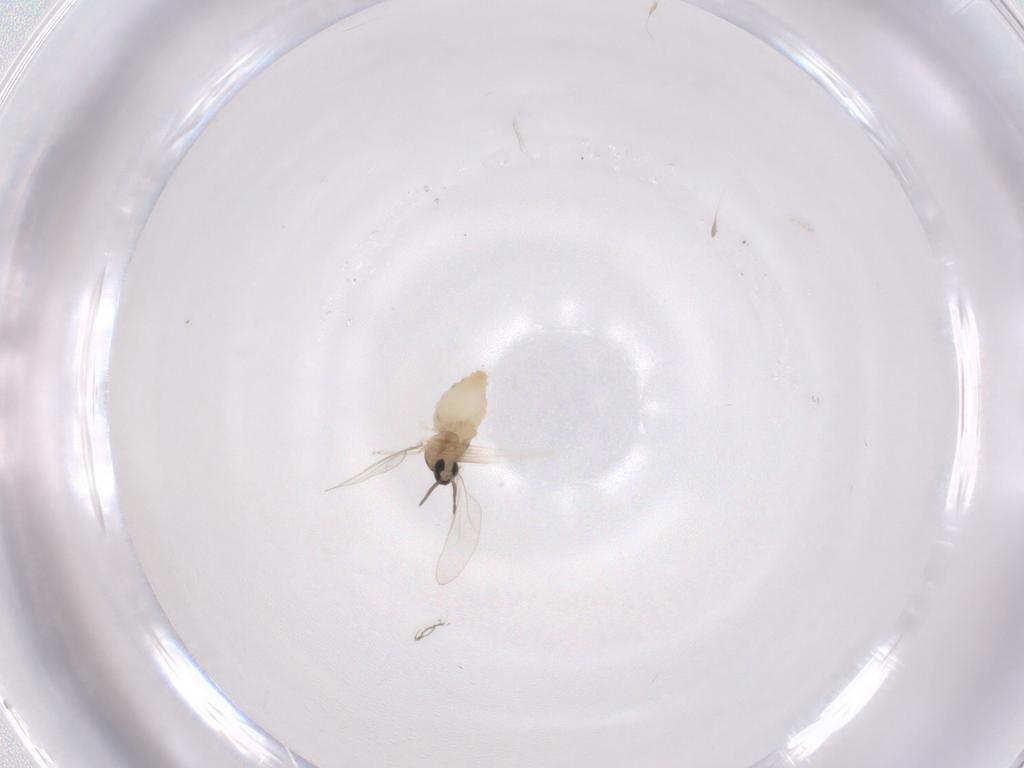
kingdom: Animalia
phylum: Arthropoda
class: Insecta
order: Diptera
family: Cecidomyiidae
